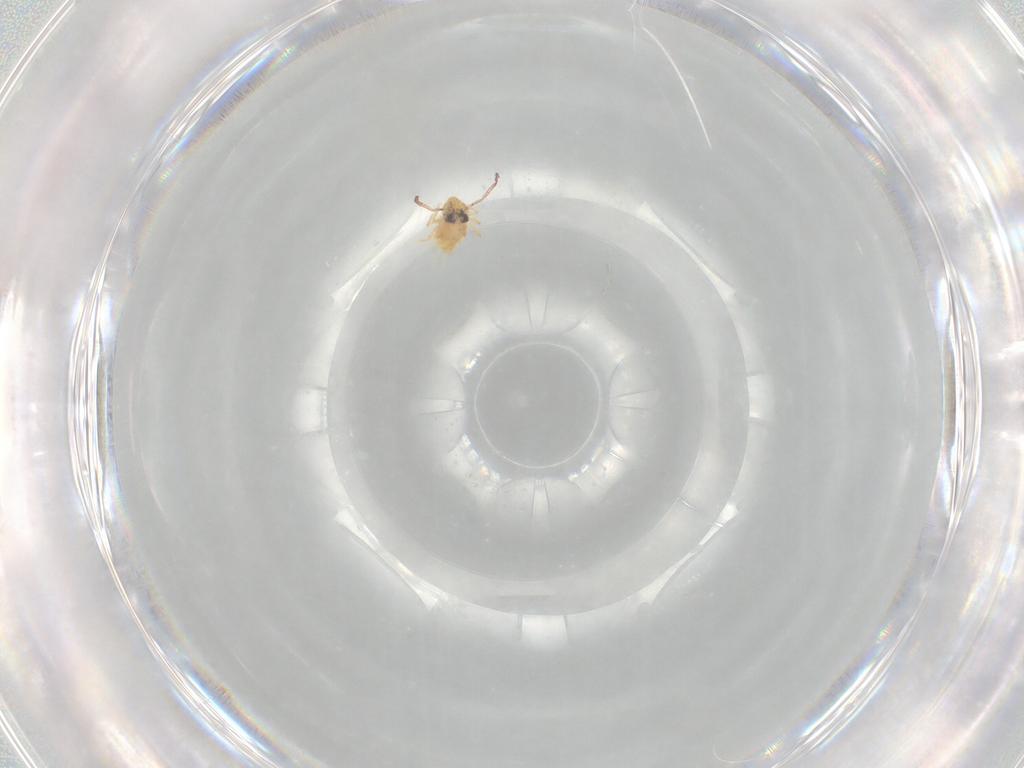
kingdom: Animalia
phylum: Arthropoda
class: Collembola
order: Symphypleona
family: Bourletiellidae
